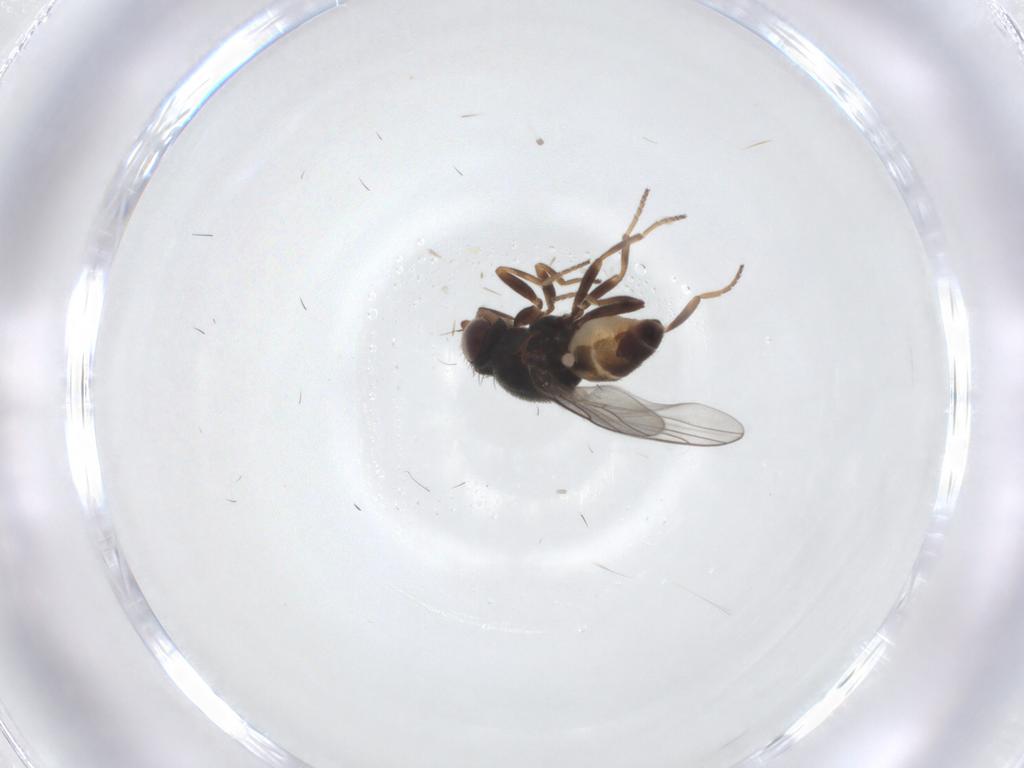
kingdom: Animalia
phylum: Arthropoda
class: Insecta
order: Diptera
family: Chloropidae
